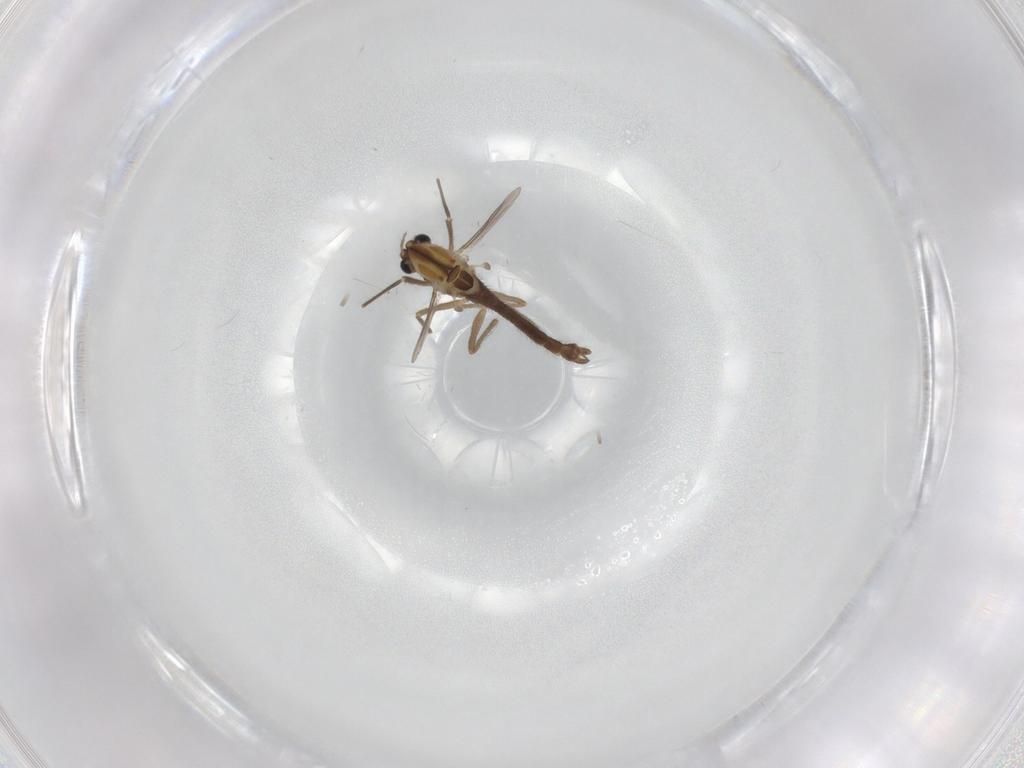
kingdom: Animalia
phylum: Arthropoda
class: Insecta
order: Diptera
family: Chironomidae
